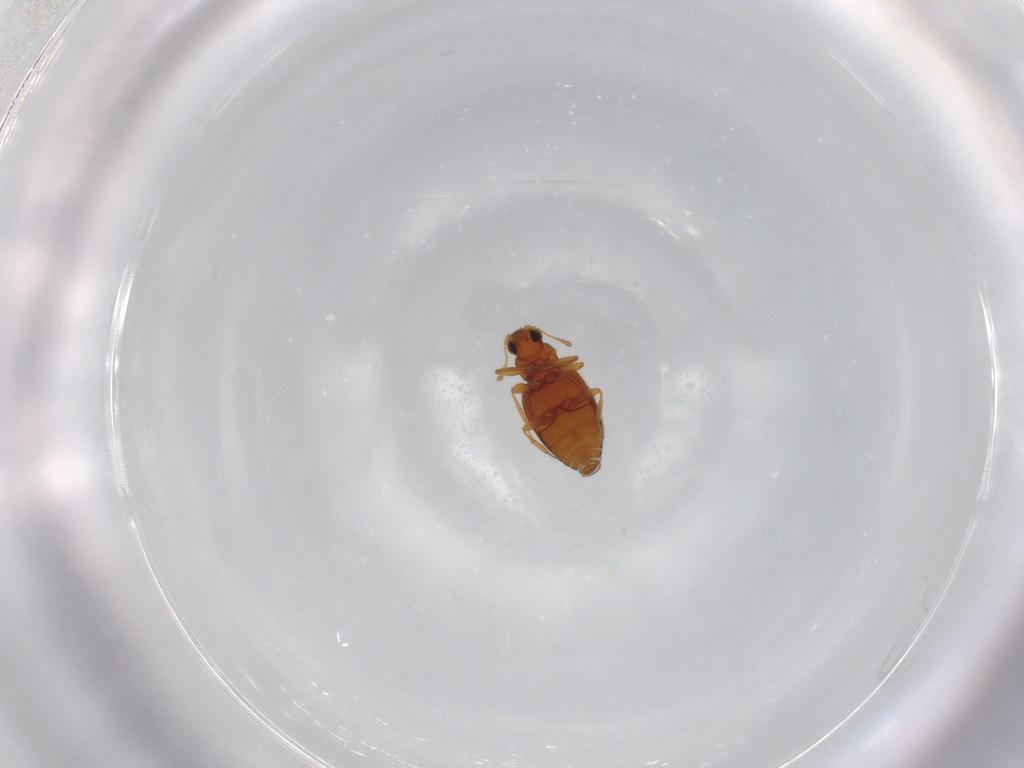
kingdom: Animalia
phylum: Arthropoda
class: Insecta
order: Coleoptera
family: Latridiidae
